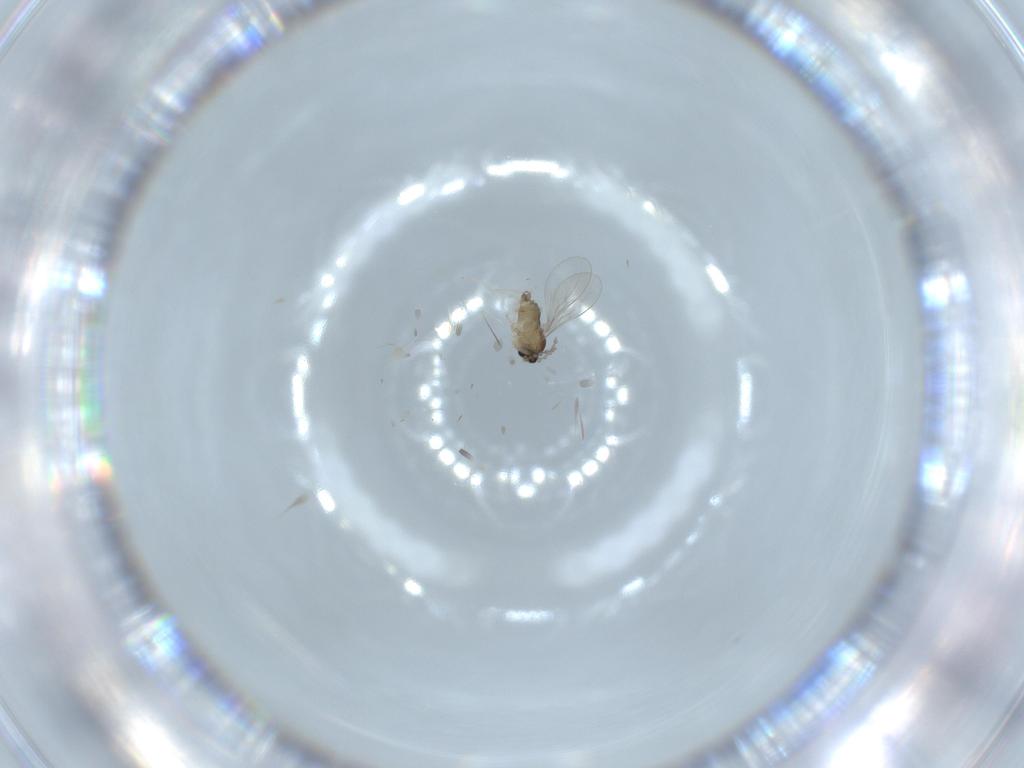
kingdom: Animalia
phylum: Arthropoda
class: Insecta
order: Diptera
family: Cecidomyiidae
